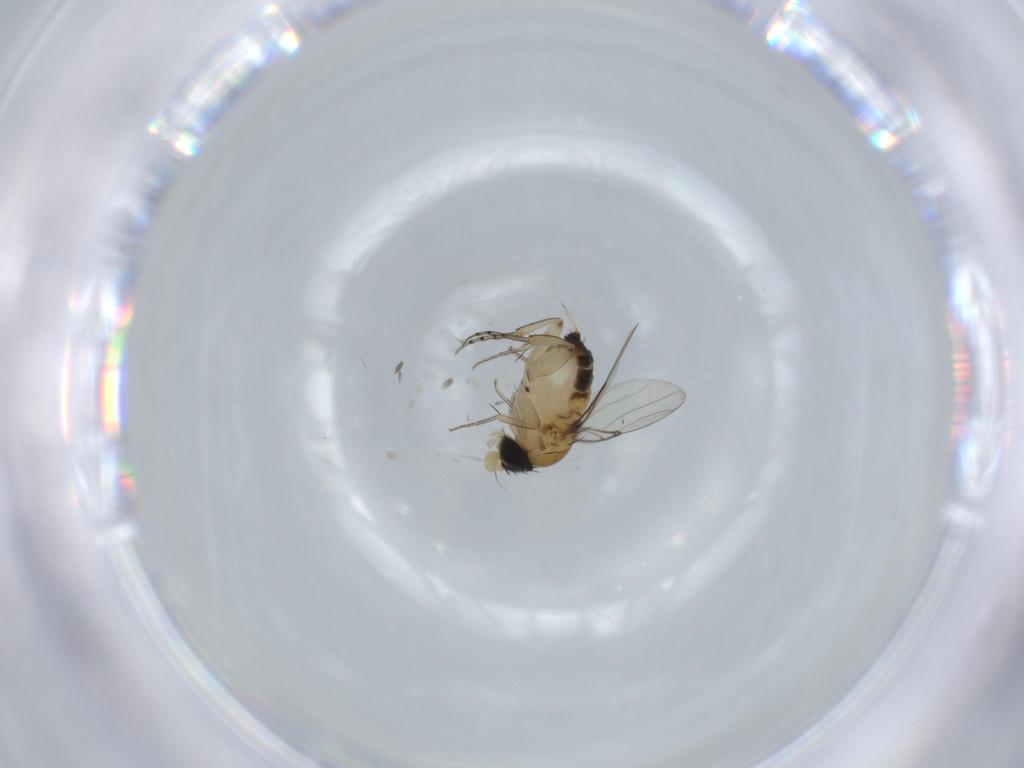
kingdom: Animalia
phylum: Arthropoda
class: Insecta
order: Diptera
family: Phoridae
